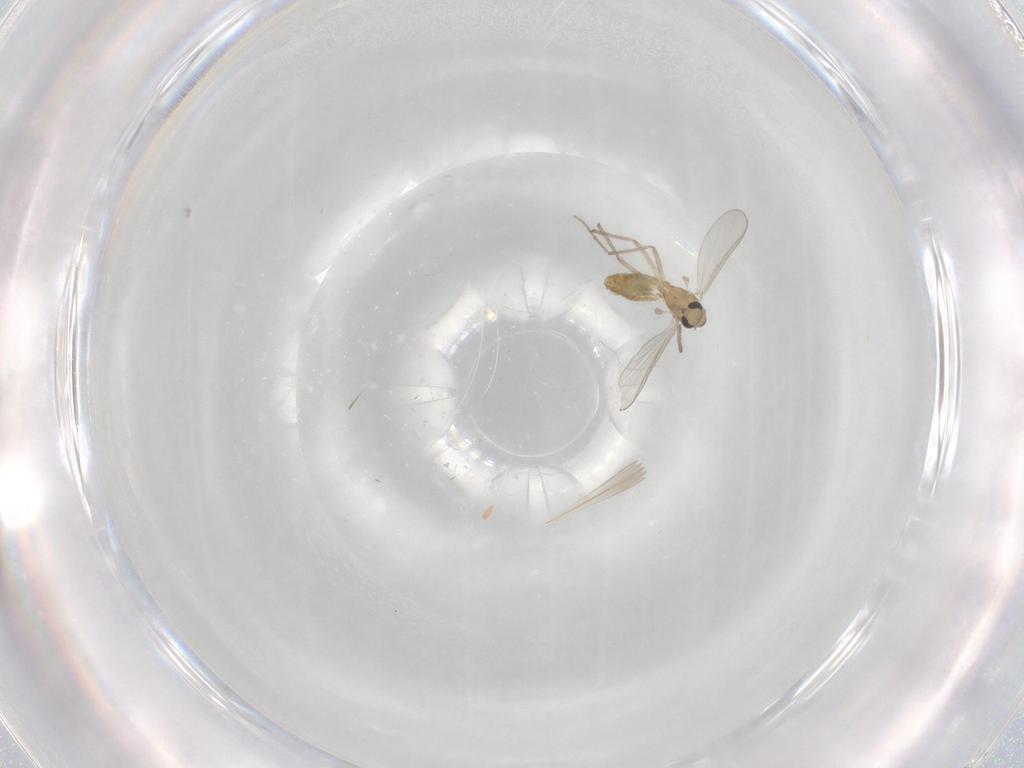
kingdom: Animalia
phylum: Arthropoda
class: Insecta
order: Diptera
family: Chironomidae
